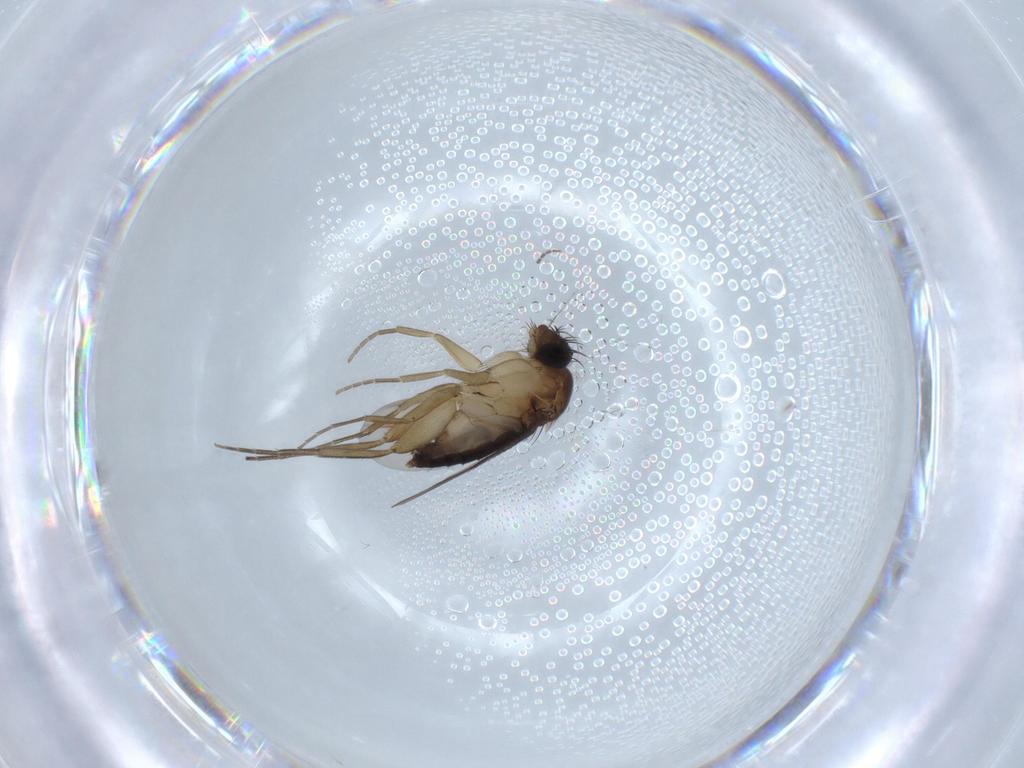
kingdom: Animalia
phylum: Arthropoda
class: Insecta
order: Diptera
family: Phoridae
